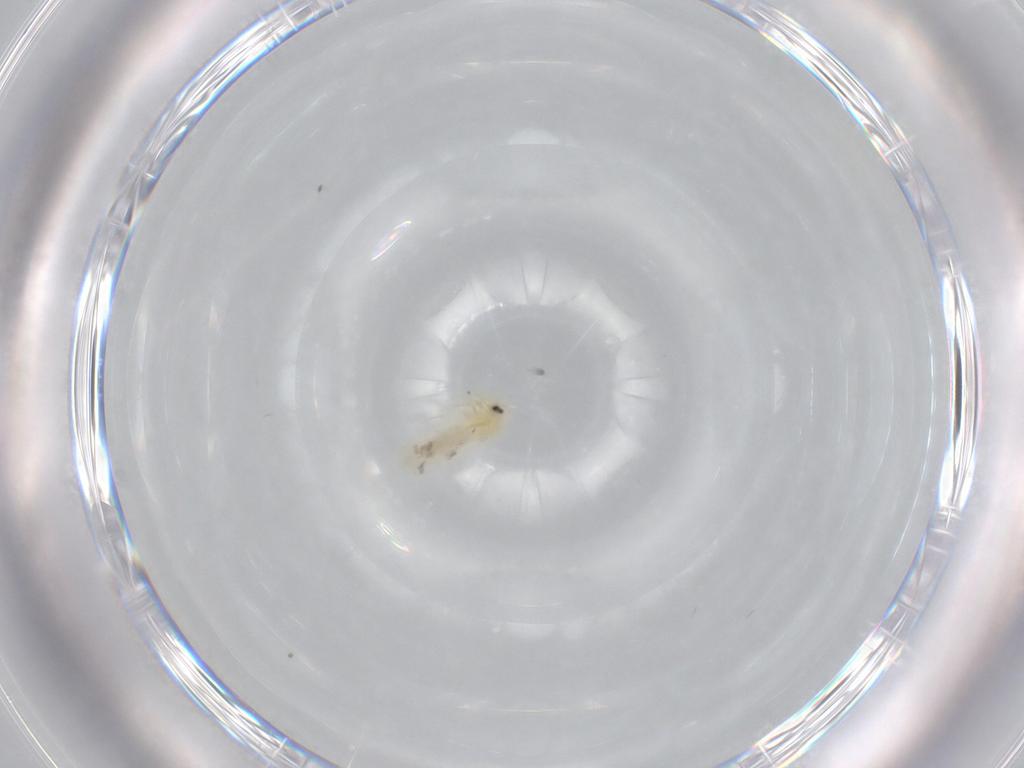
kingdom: Animalia
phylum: Arthropoda
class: Insecta
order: Hemiptera
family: Aleyrodidae
